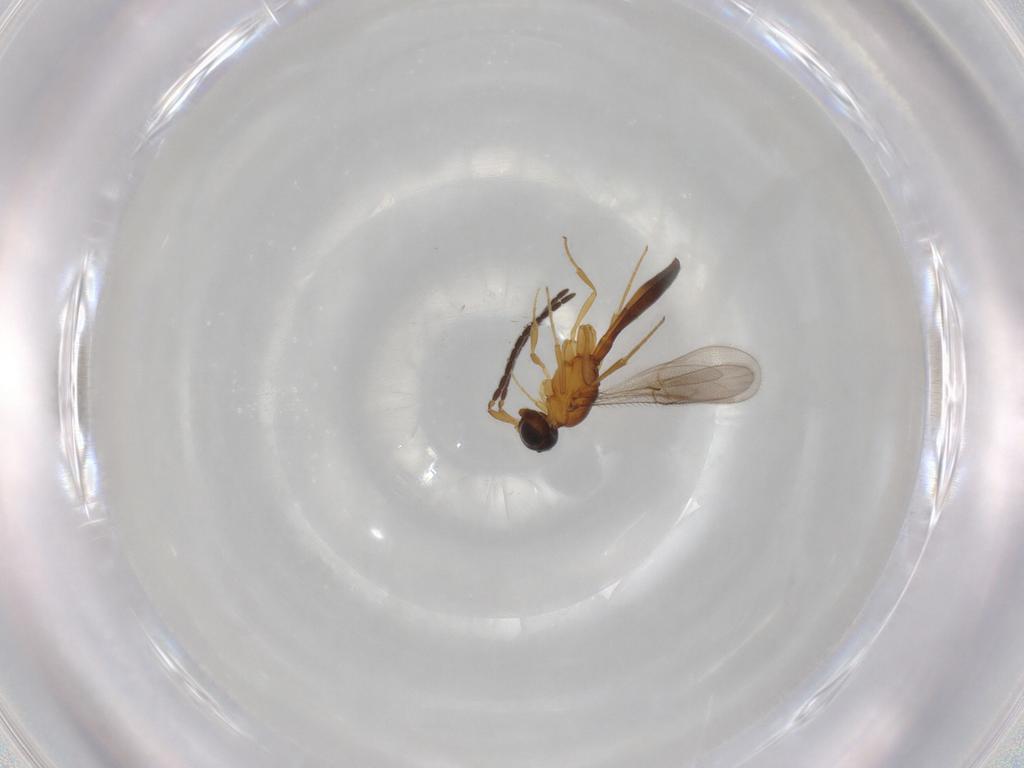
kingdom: Animalia
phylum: Arthropoda
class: Insecta
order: Hymenoptera
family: Scelionidae
